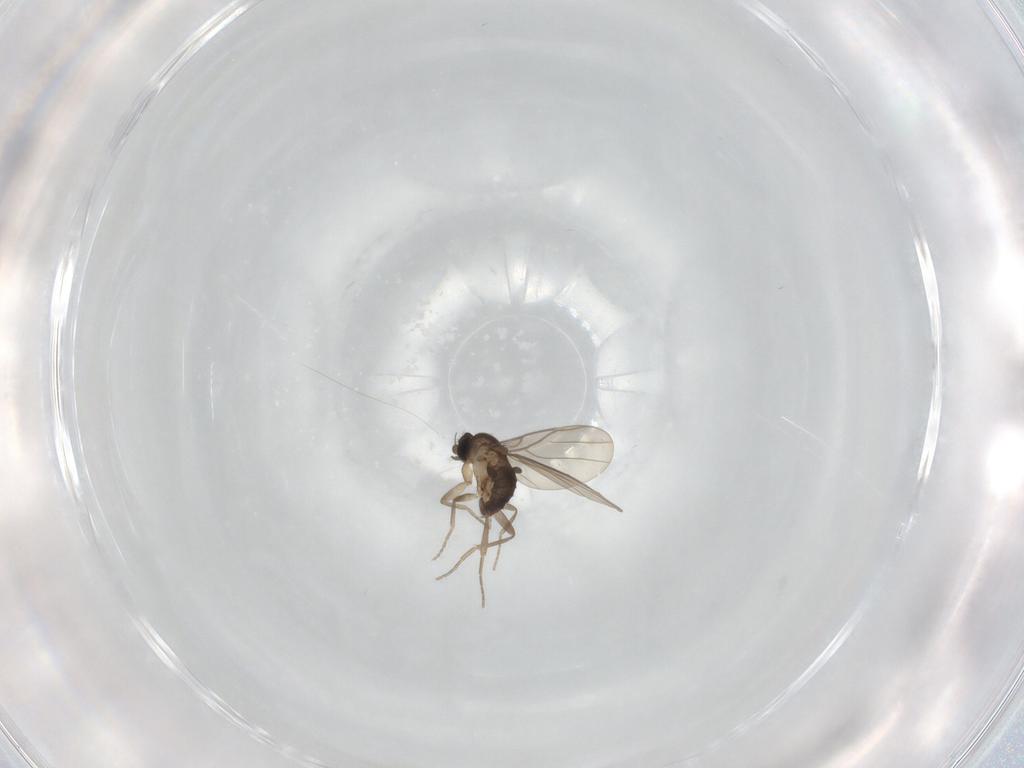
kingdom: Animalia
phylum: Arthropoda
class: Insecta
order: Diptera
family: Phoridae
